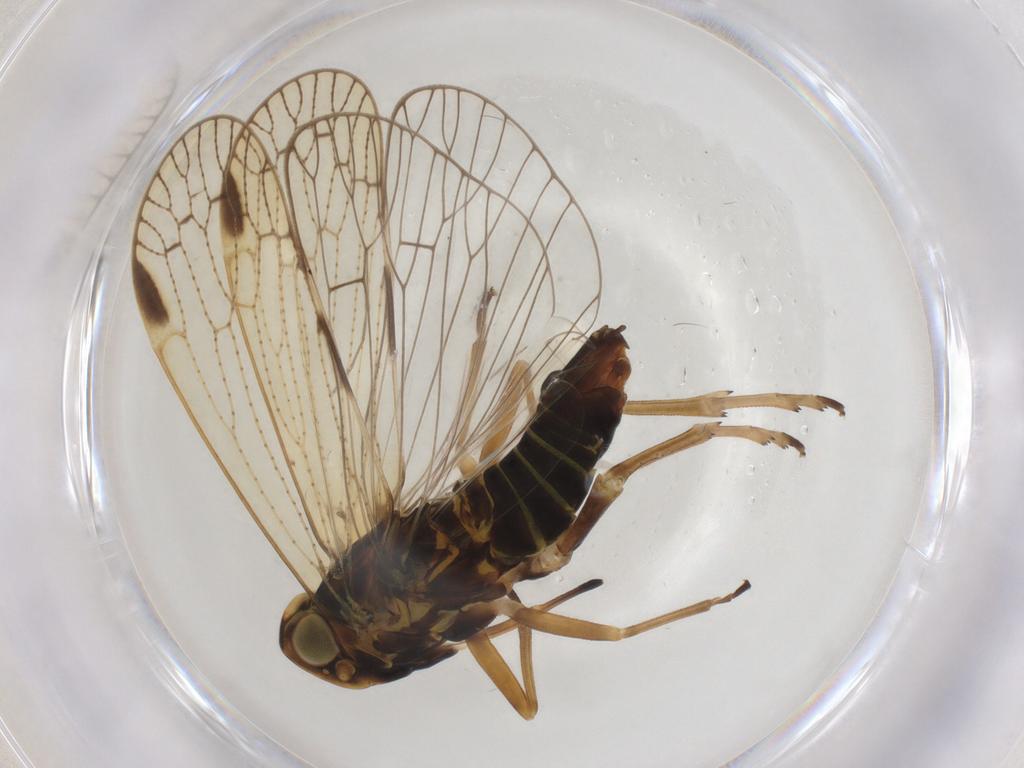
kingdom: Animalia
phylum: Arthropoda
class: Insecta
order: Hemiptera
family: Cixiidae
